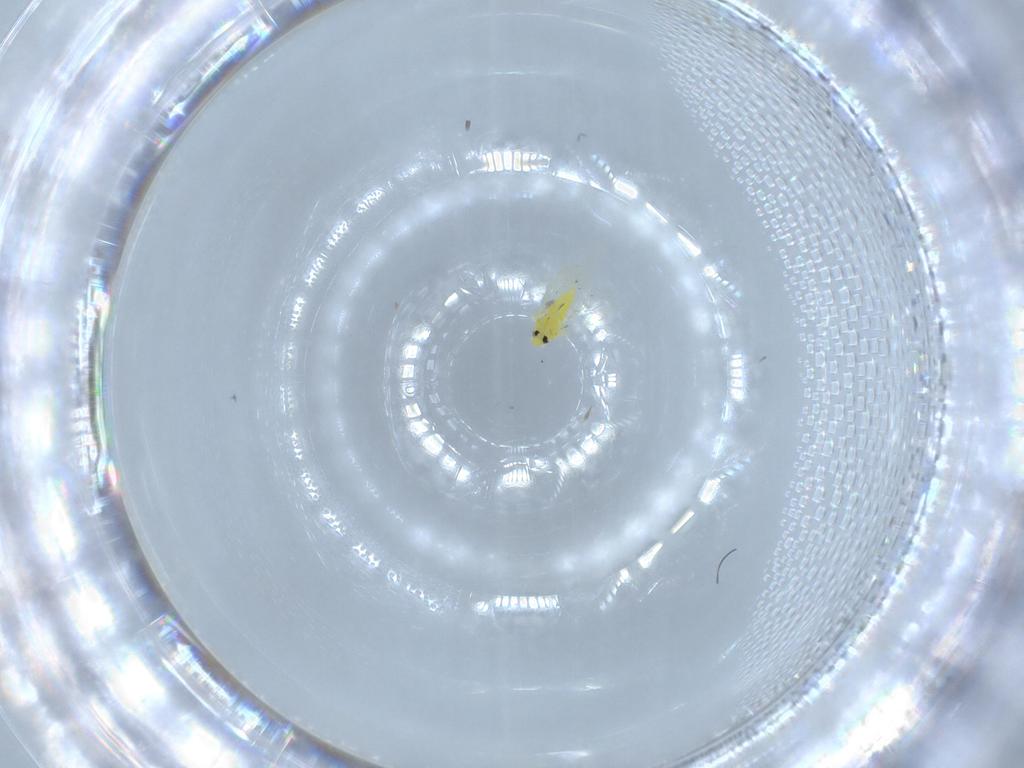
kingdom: Animalia
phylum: Arthropoda
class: Insecta
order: Hemiptera
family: Aleyrodidae
